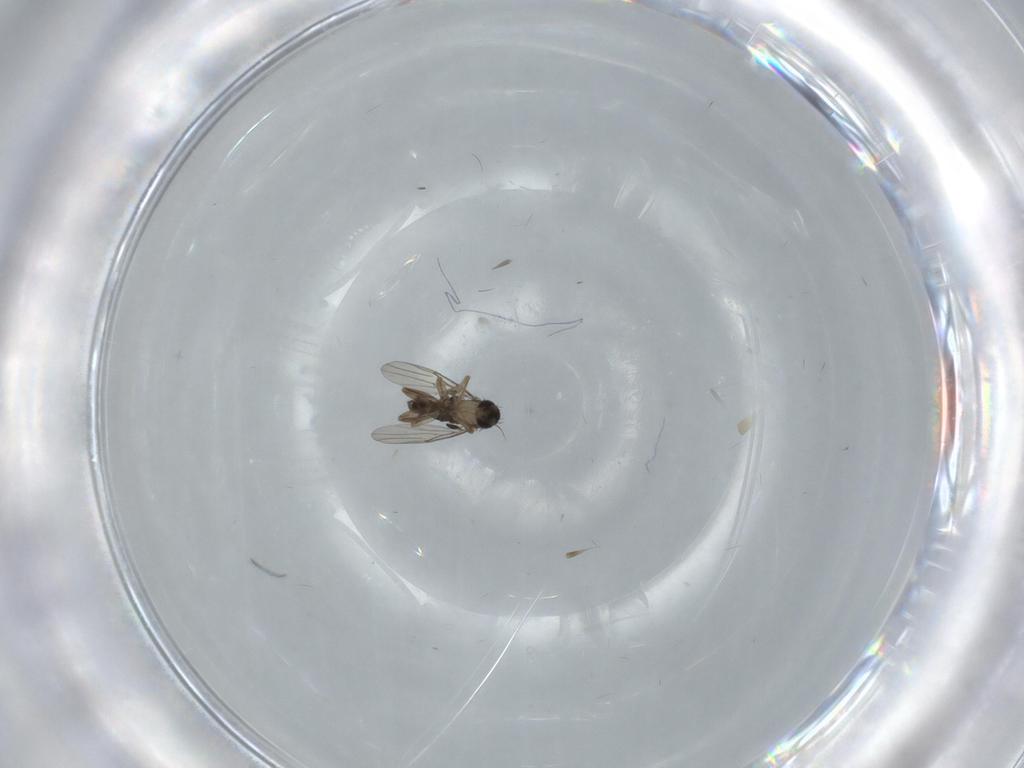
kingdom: Animalia
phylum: Arthropoda
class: Insecta
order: Diptera
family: Phoridae
